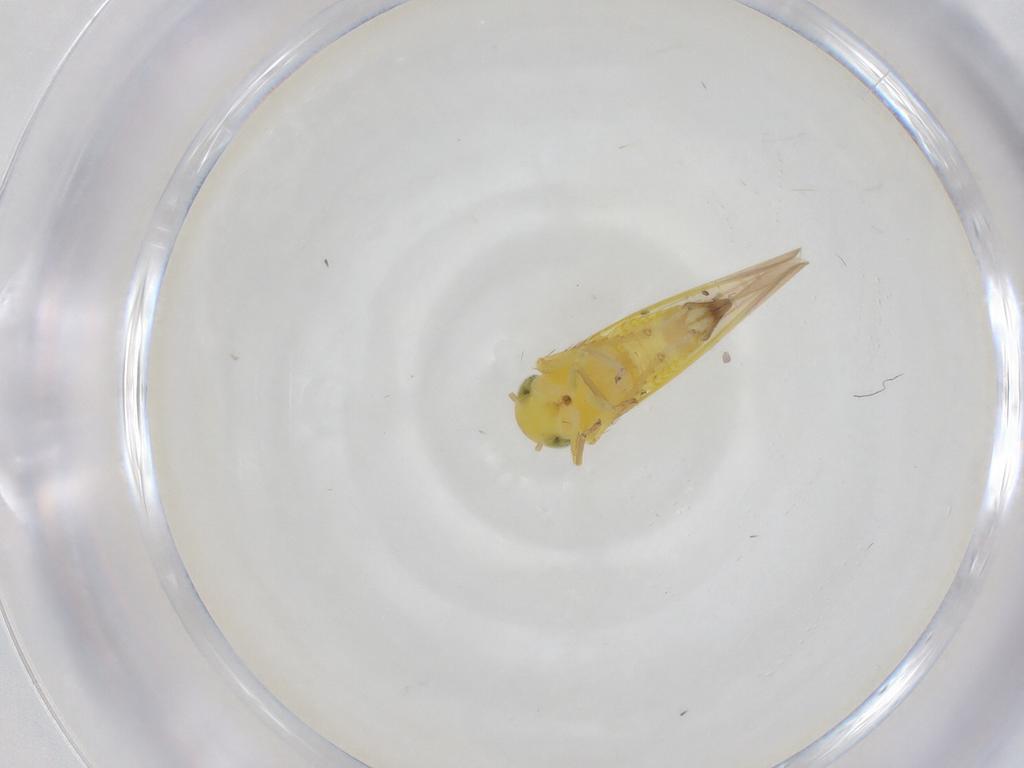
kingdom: Animalia
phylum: Arthropoda
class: Insecta
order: Hemiptera
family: Cicadellidae
